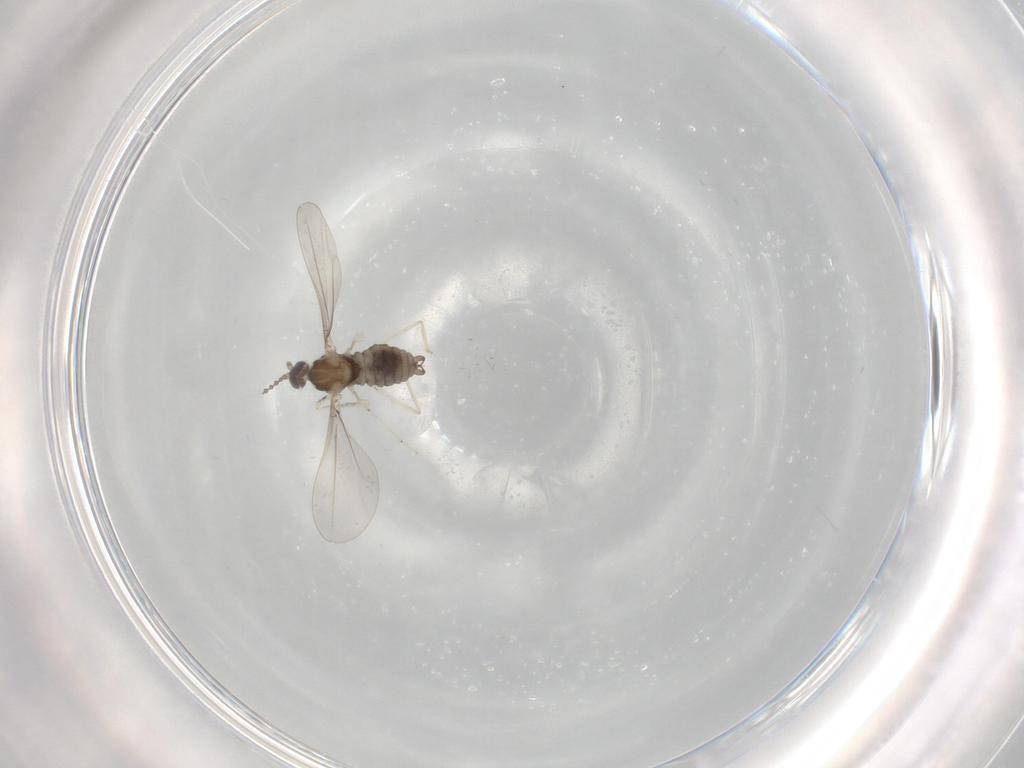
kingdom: Animalia
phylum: Arthropoda
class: Insecta
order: Diptera
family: Cecidomyiidae
